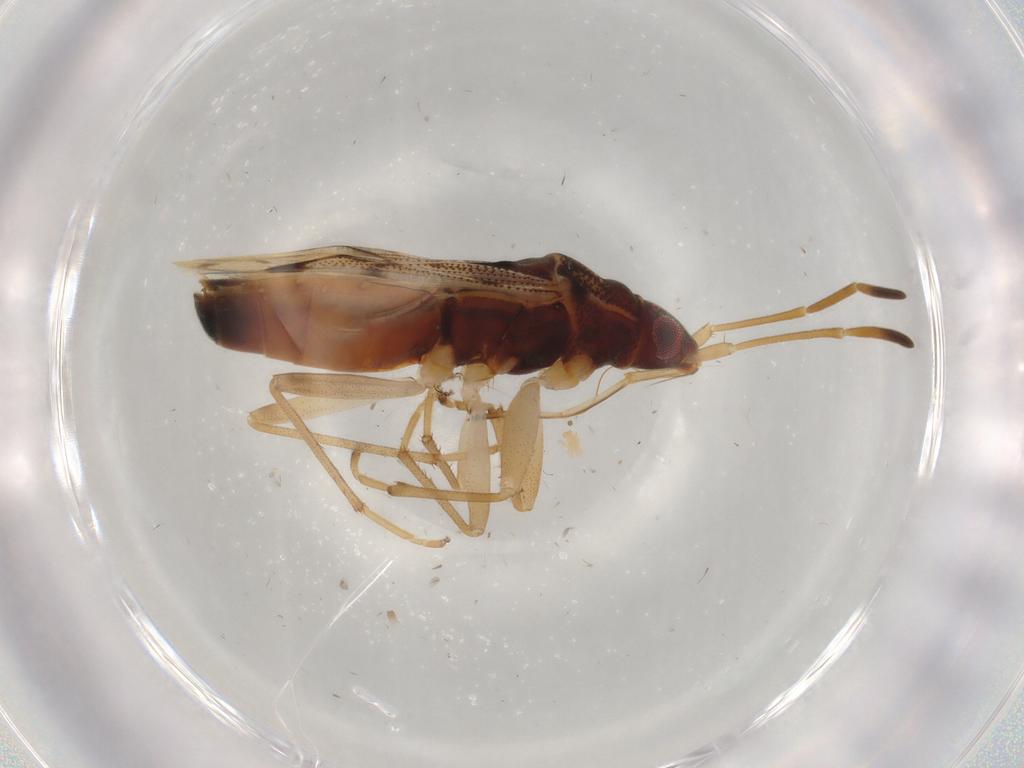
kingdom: Animalia
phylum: Arthropoda
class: Insecta
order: Hemiptera
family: Rhyparochromidae
